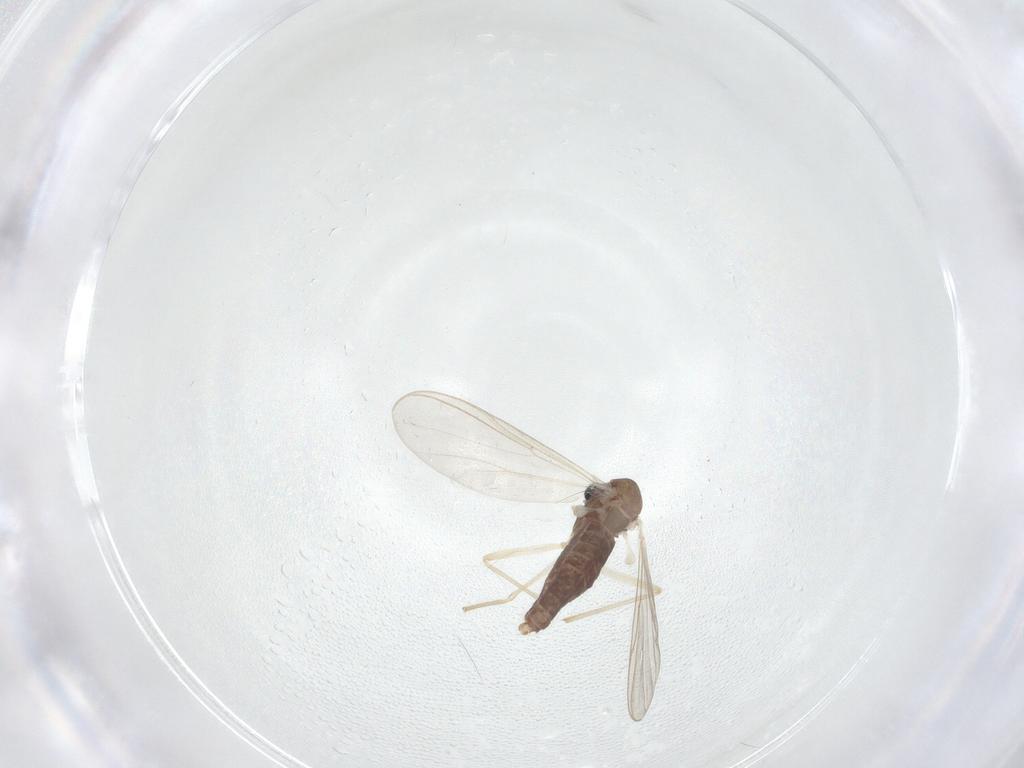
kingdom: Animalia
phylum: Arthropoda
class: Insecta
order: Diptera
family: Chironomidae
